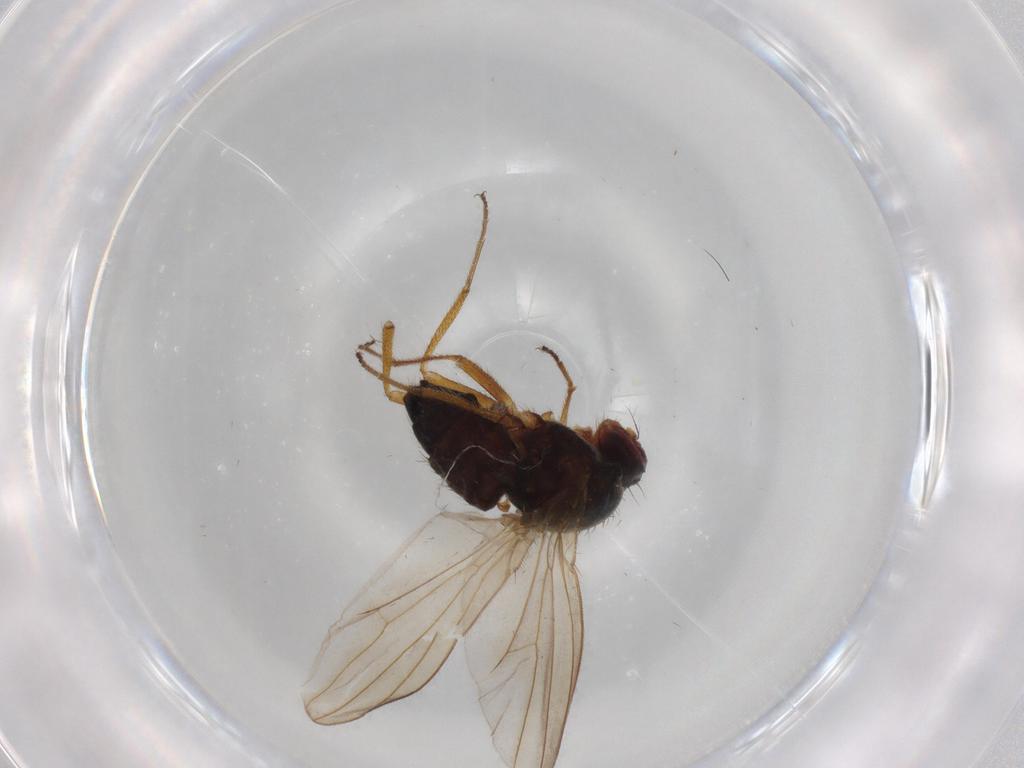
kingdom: Animalia
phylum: Arthropoda
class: Insecta
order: Diptera
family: Drosophilidae
